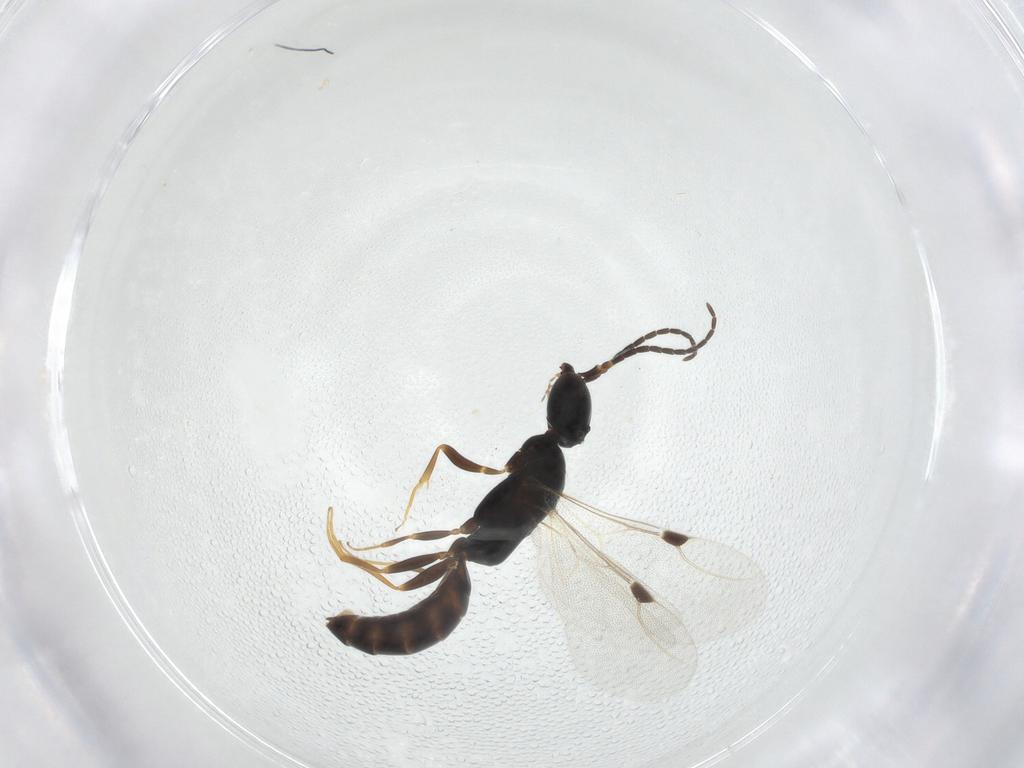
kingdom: Animalia
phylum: Arthropoda
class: Insecta
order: Hymenoptera
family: Bethylidae
